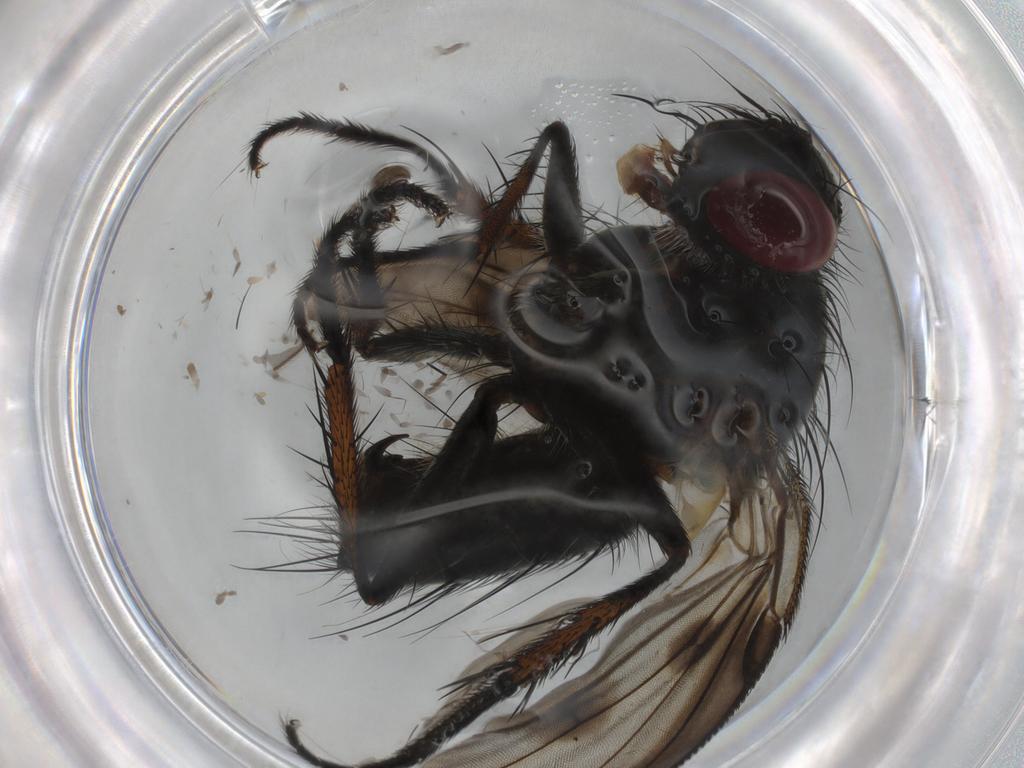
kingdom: Animalia
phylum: Arthropoda
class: Insecta
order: Diptera
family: Tachinidae
